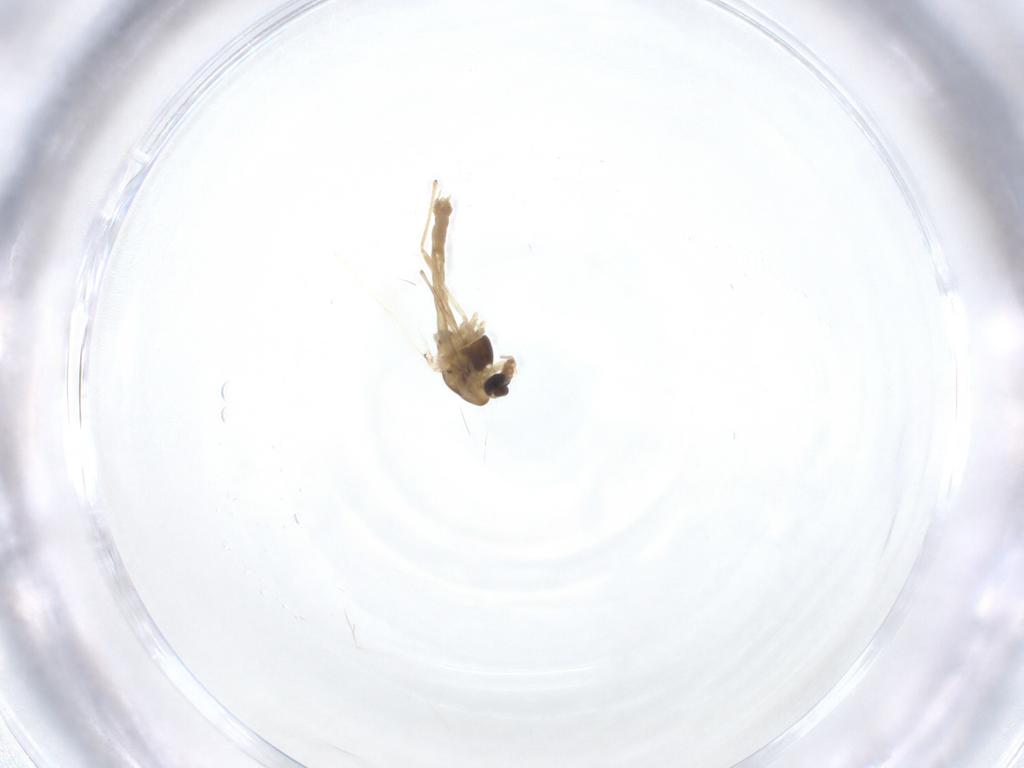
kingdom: Animalia
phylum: Arthropoda
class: Insecta
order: Diptera
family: Chironomidae
